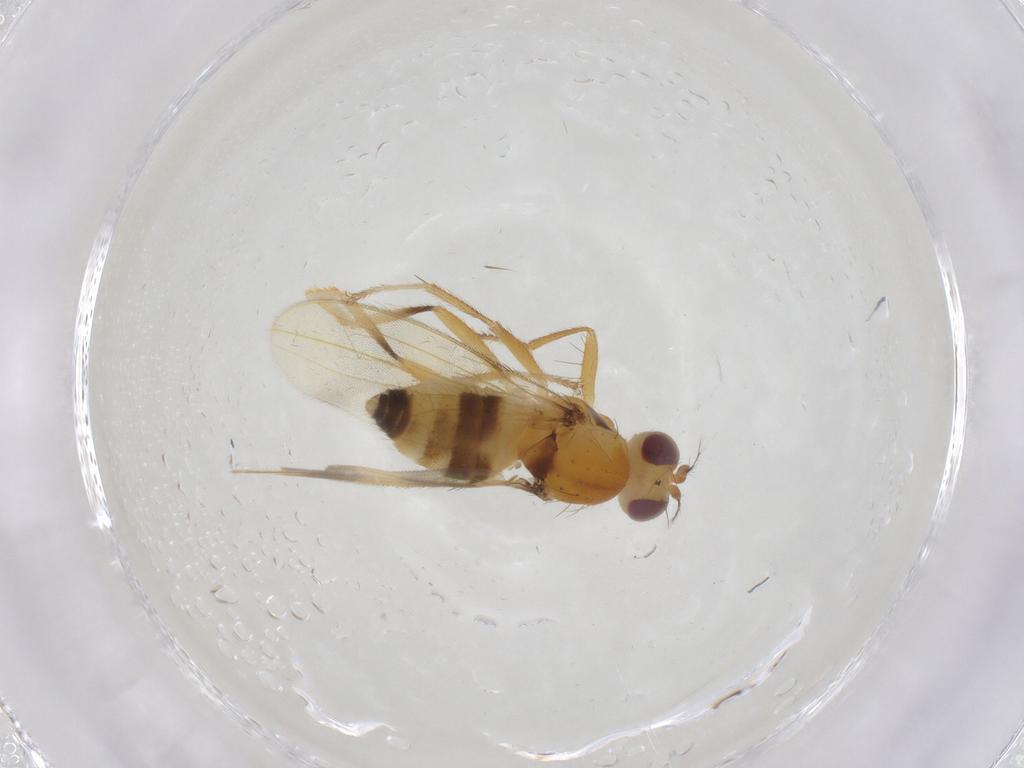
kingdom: Animalia
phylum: Arthropoda
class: Insecta
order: Diptera
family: Periscelididae
